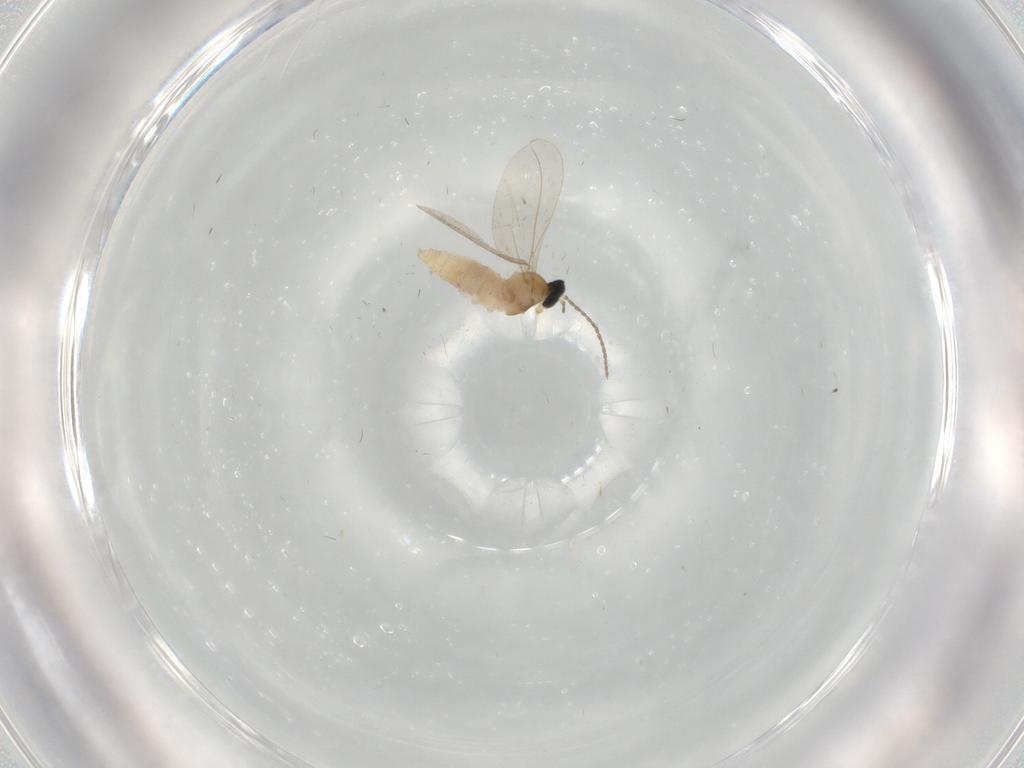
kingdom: Animalia
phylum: Arthropoda
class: Insecta
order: Diptera
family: Cecidomyiidae
